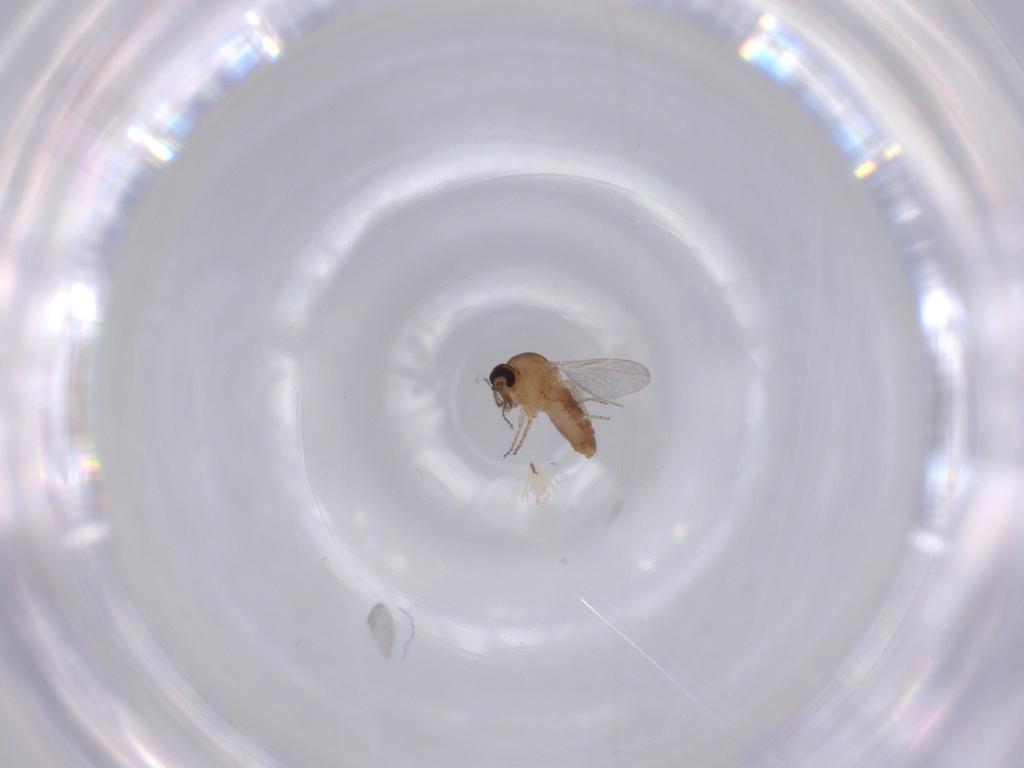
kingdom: Animalia
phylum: Arthropoda
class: Insecta
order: Diptera
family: Ceratopogonidae
